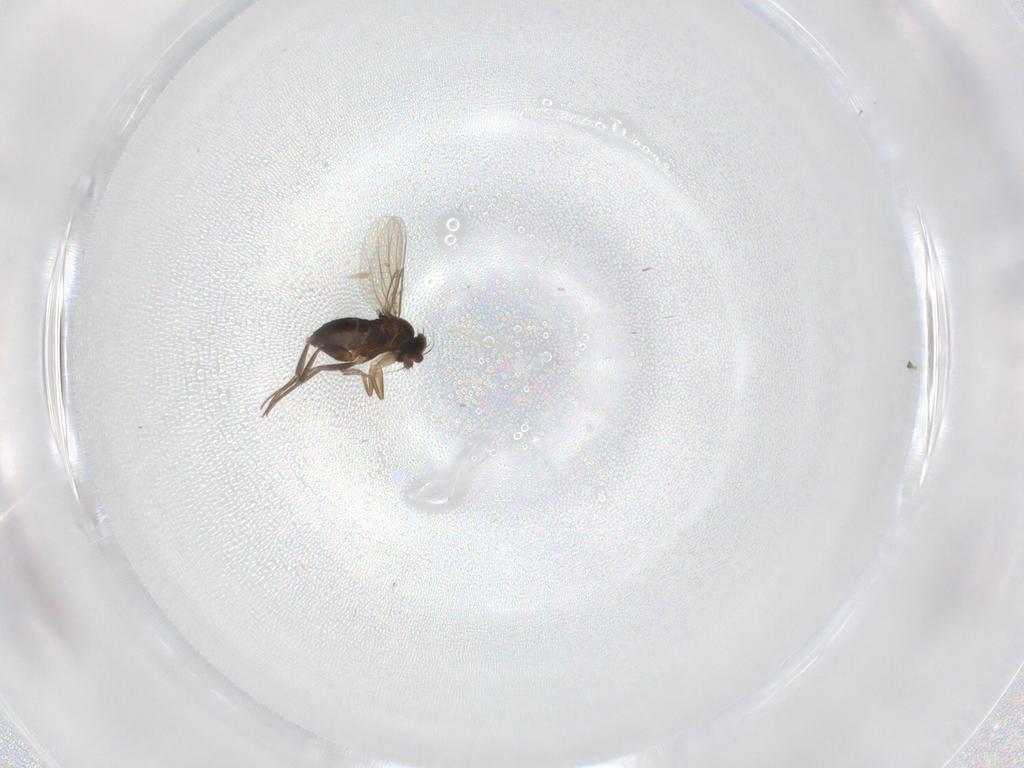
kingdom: Animalia
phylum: Arthropoda
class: Insecta
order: Diptera
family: Phoridae
